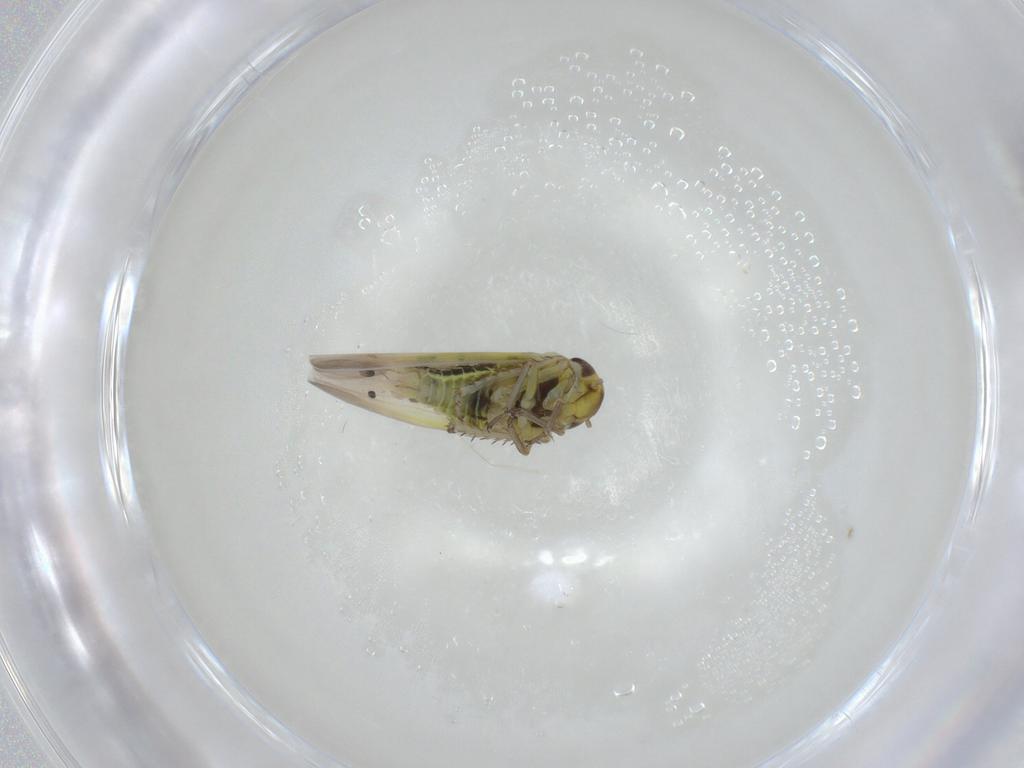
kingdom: Animalia
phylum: Arthropoda
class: Insecta
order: Hemiptera
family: Cicadellidae
